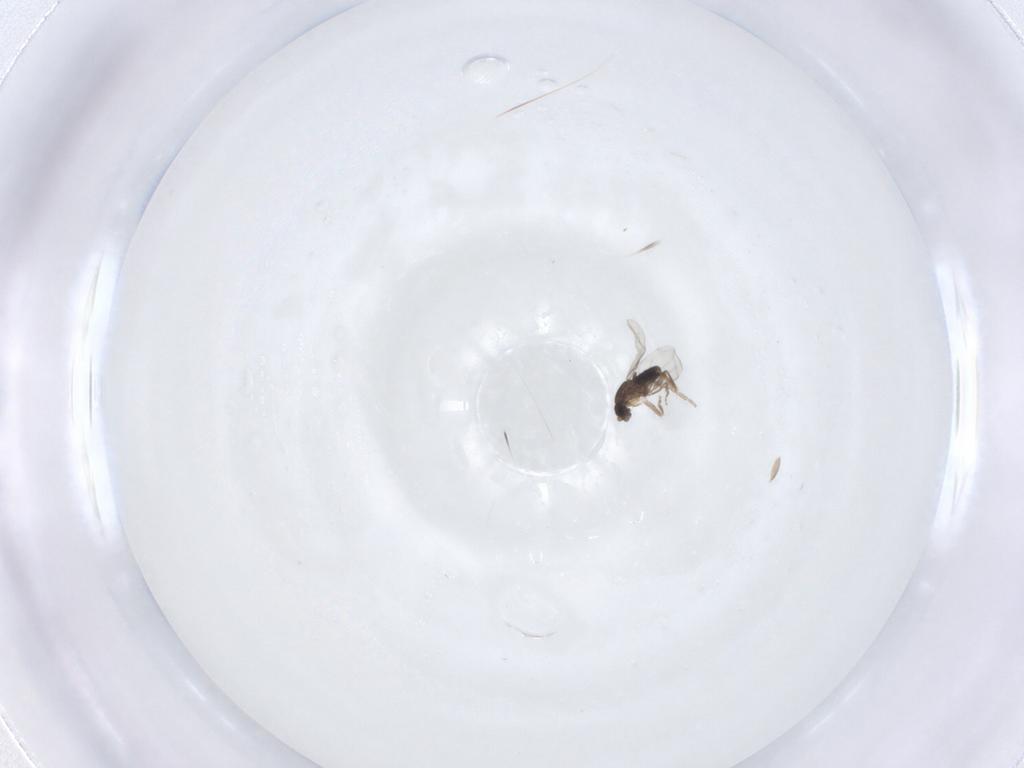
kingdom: Animalia
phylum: Arthropoda
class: Insecta
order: Diptera
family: Phoridae
